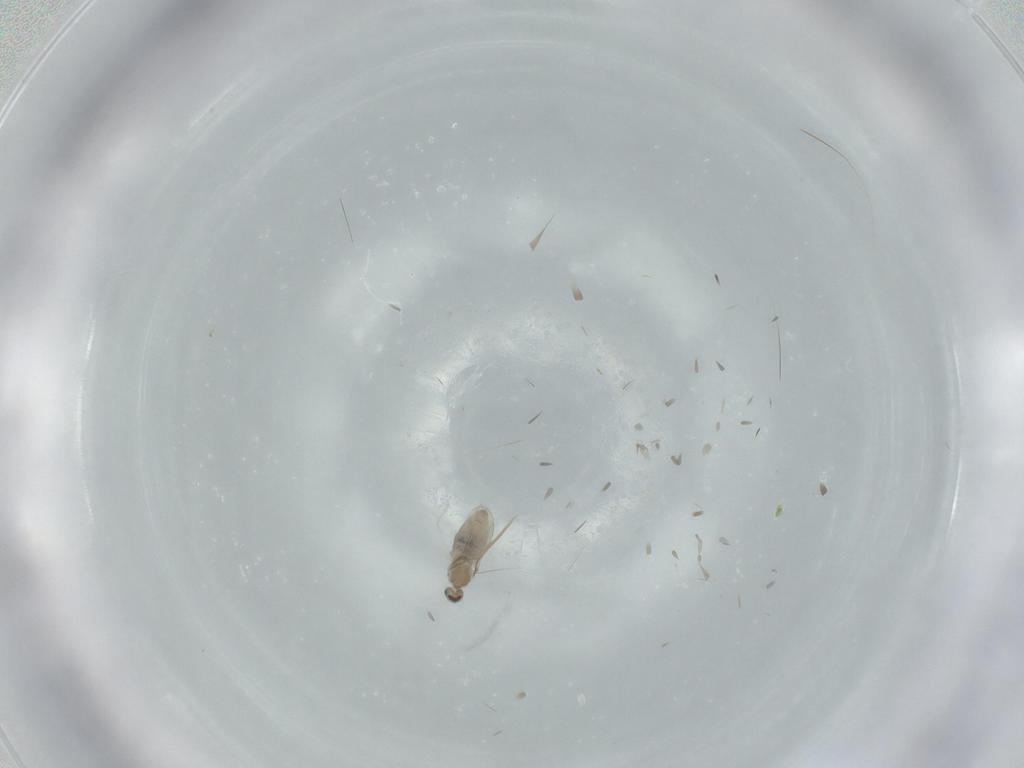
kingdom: Animalia
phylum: Arthropoda
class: Insecta
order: Diptera
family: Cecidomyiidae
